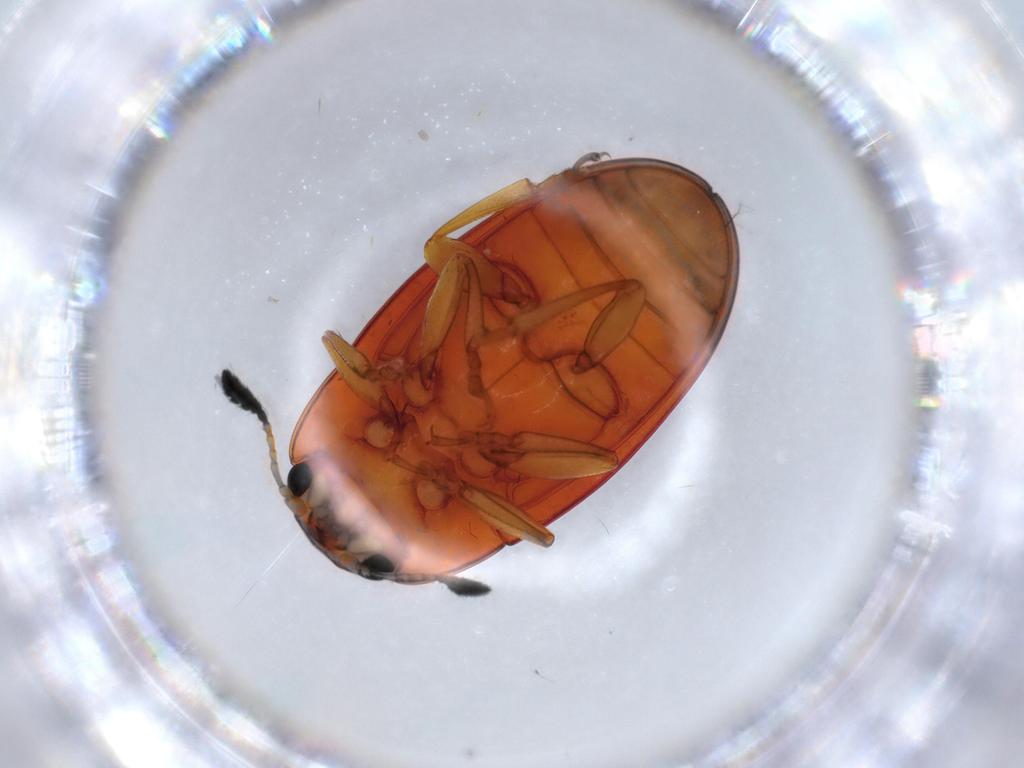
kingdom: Animalia
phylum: Arthropoda
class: Insecta
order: Coleoptera
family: Erotylidae
